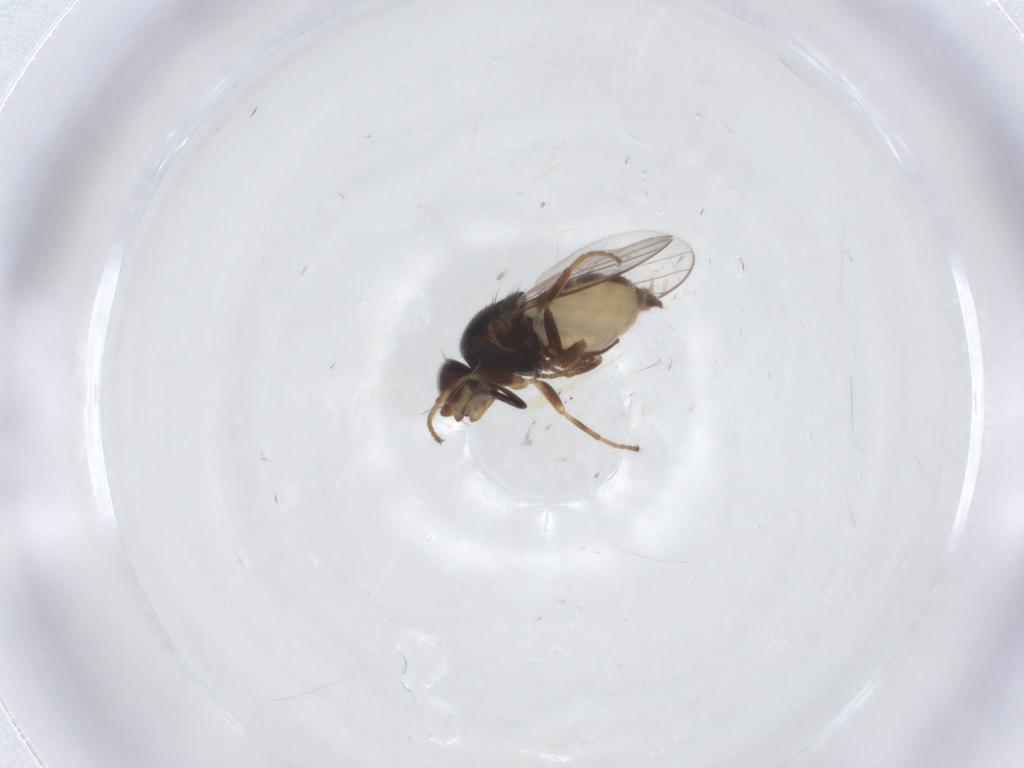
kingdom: Animalia
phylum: Arthropoda
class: Insecta
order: Diptera
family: Chloropidae
